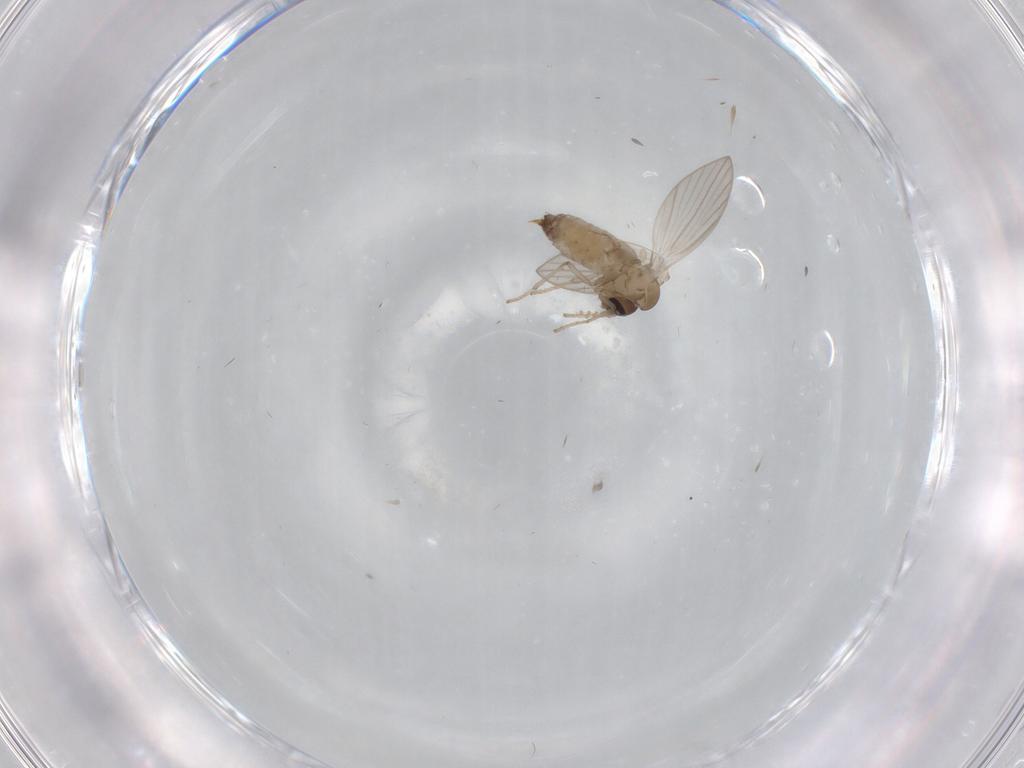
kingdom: Animalia
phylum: Arthropoda
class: Insecta
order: Diptera
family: Psychodidae
